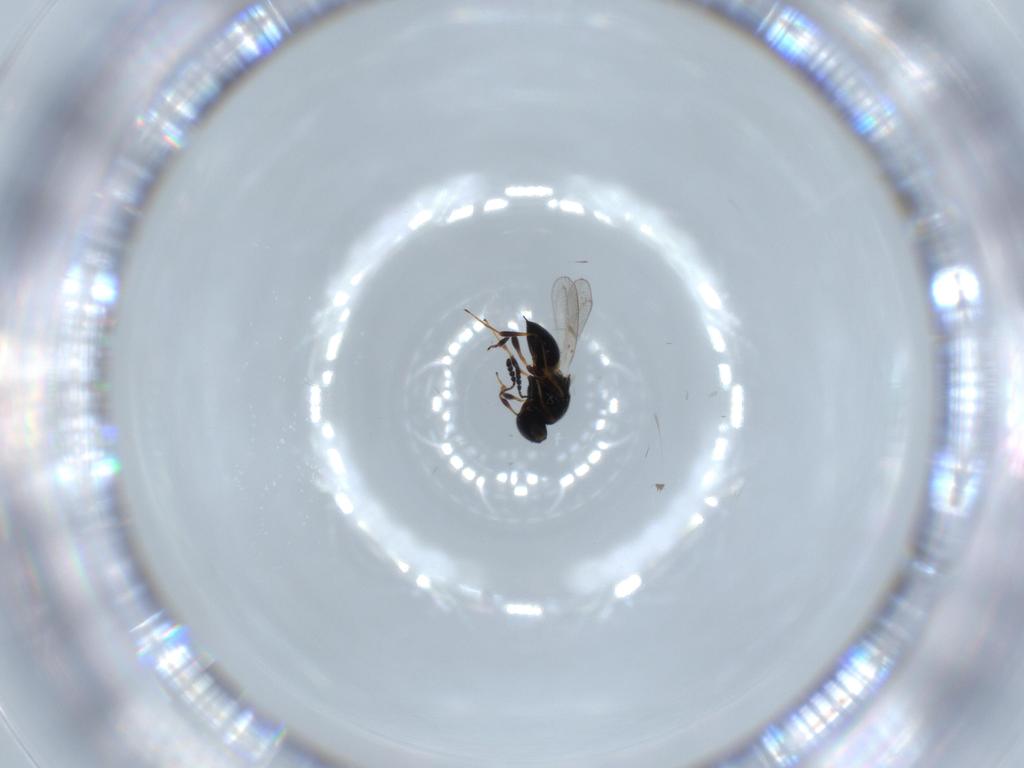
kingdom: Animalia
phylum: Arthropoda
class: Insecta
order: Hymenoptera
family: Platygastridae
